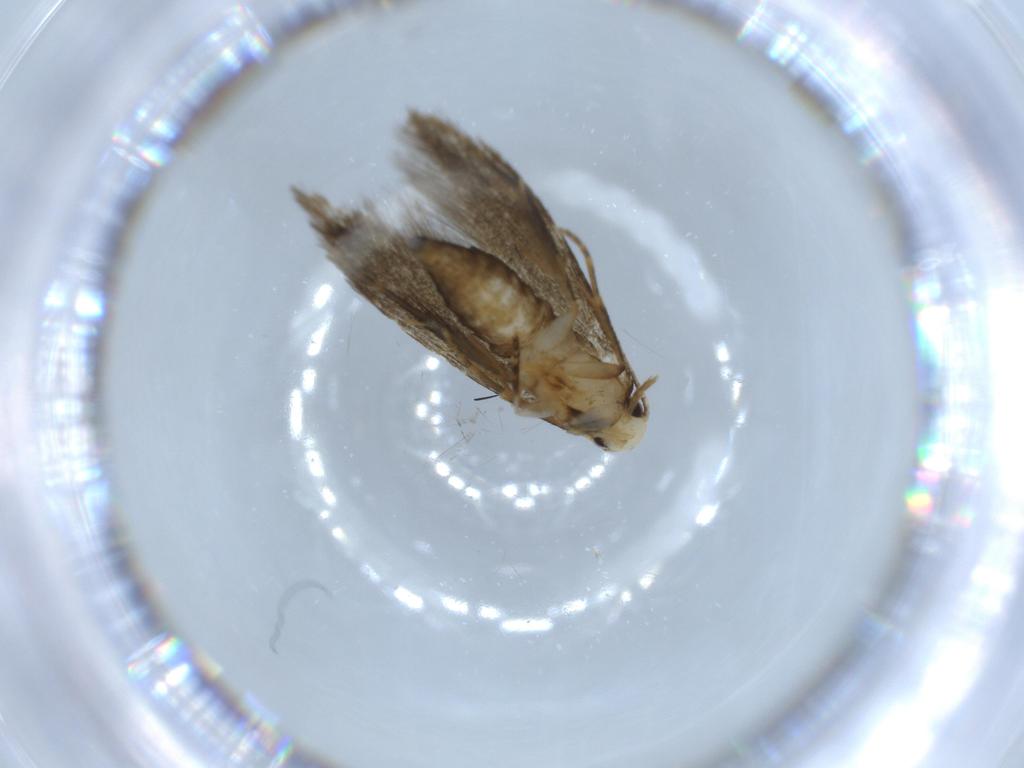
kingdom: Animalia
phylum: Arthropoda
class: Insecta
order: Lepidoptera
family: Tineidae
